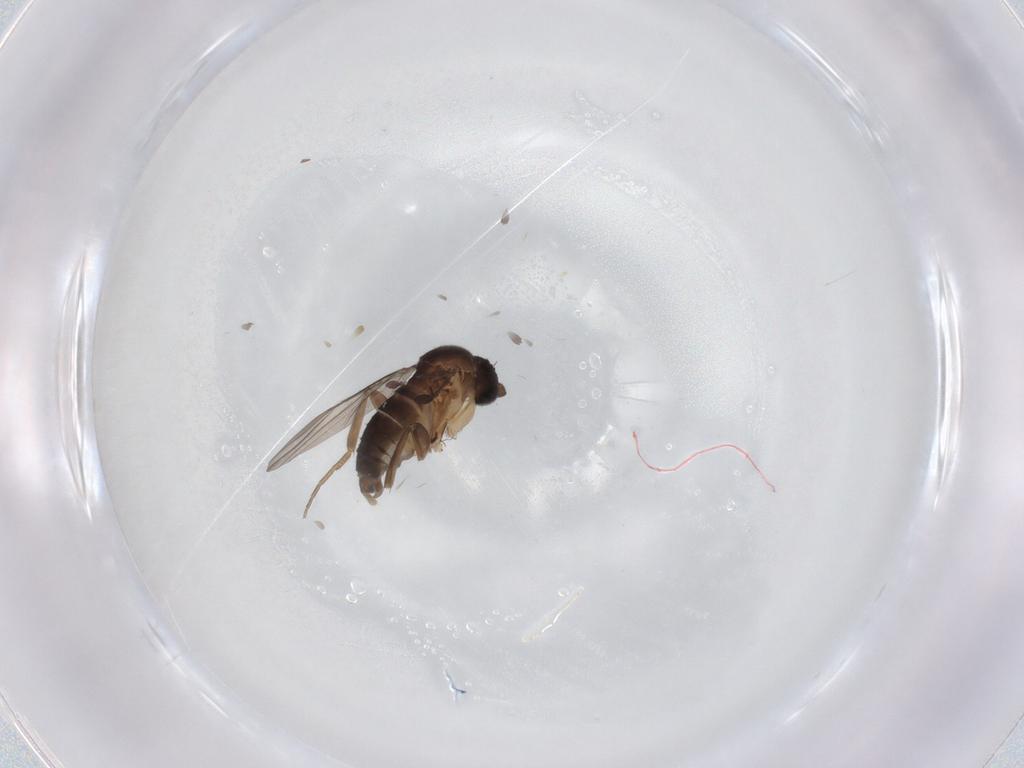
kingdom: Animalia
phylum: Arthropoda
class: Insecta
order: Diptera
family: Phoridae
